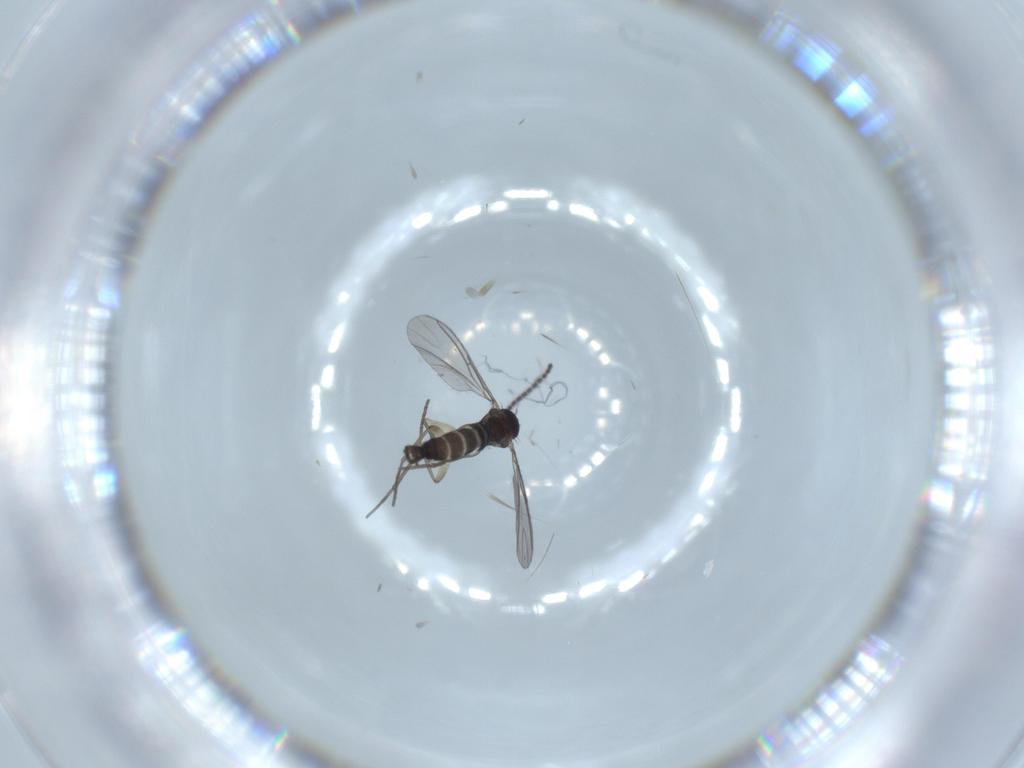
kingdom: Animalia
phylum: Arthropoda
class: Insecta
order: Diptera
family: Sciaridae
